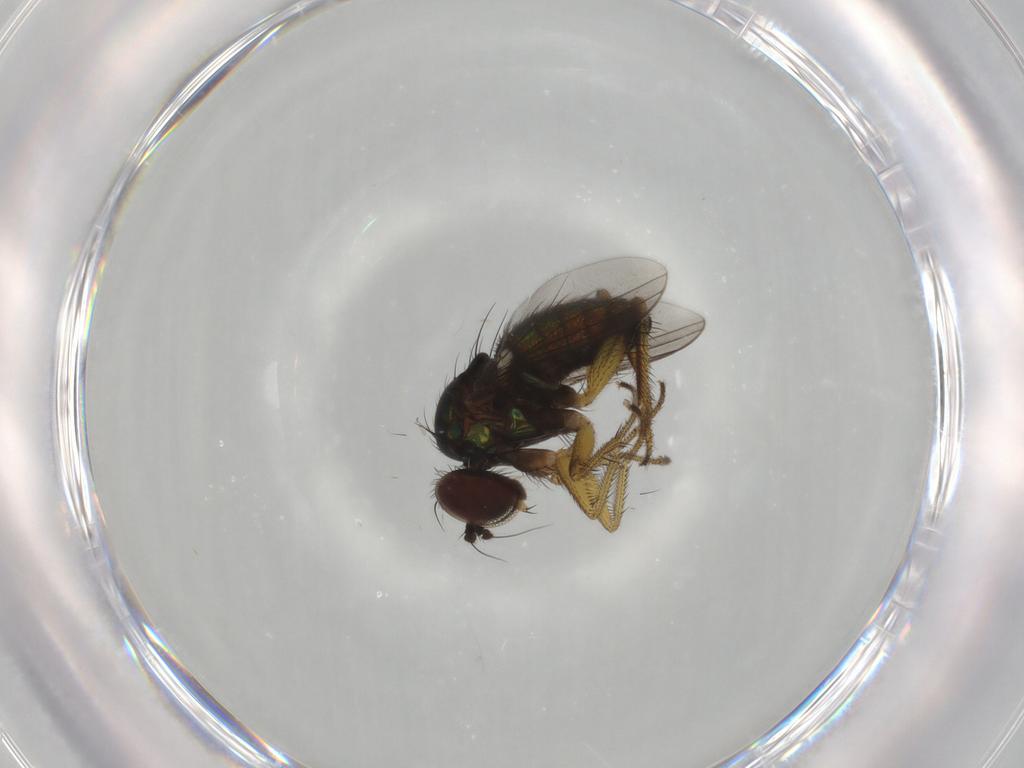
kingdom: Animalia
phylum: Arthropoda
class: Insecta
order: Diptera
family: Dolichopodidae
